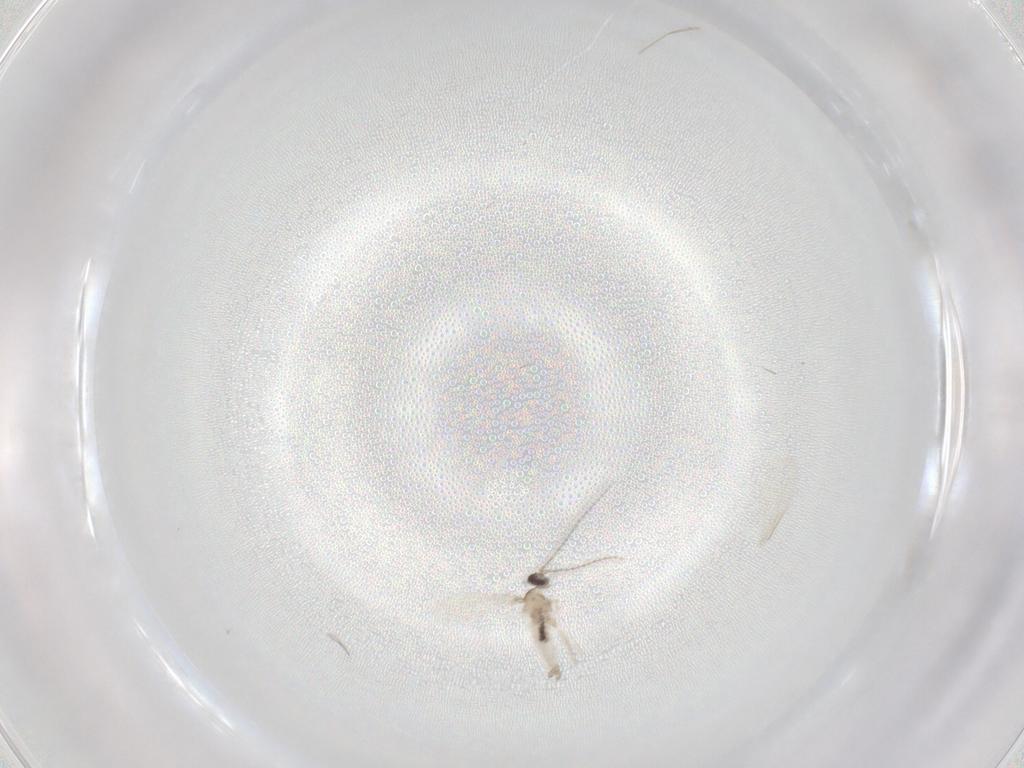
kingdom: Animalia
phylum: Arthropoda
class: Insecta
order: Diptera
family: Cecidomyiidae
